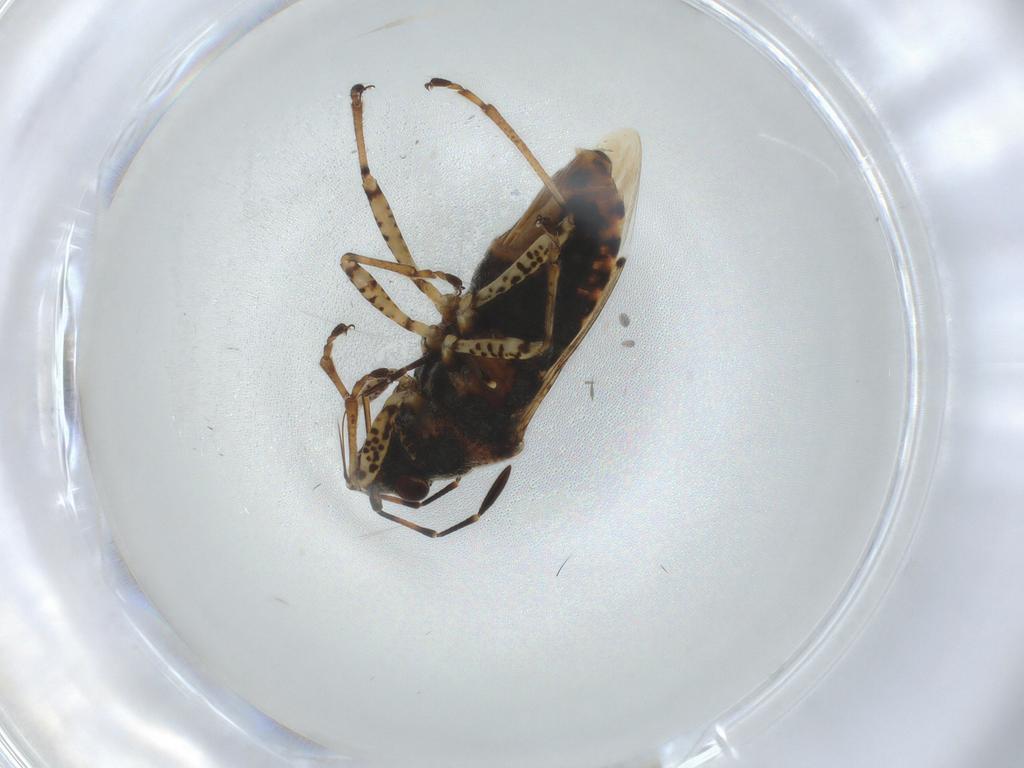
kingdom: Animalia
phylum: Arthropoda
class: Insecta
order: Hemiptera
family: Lygaeidae
